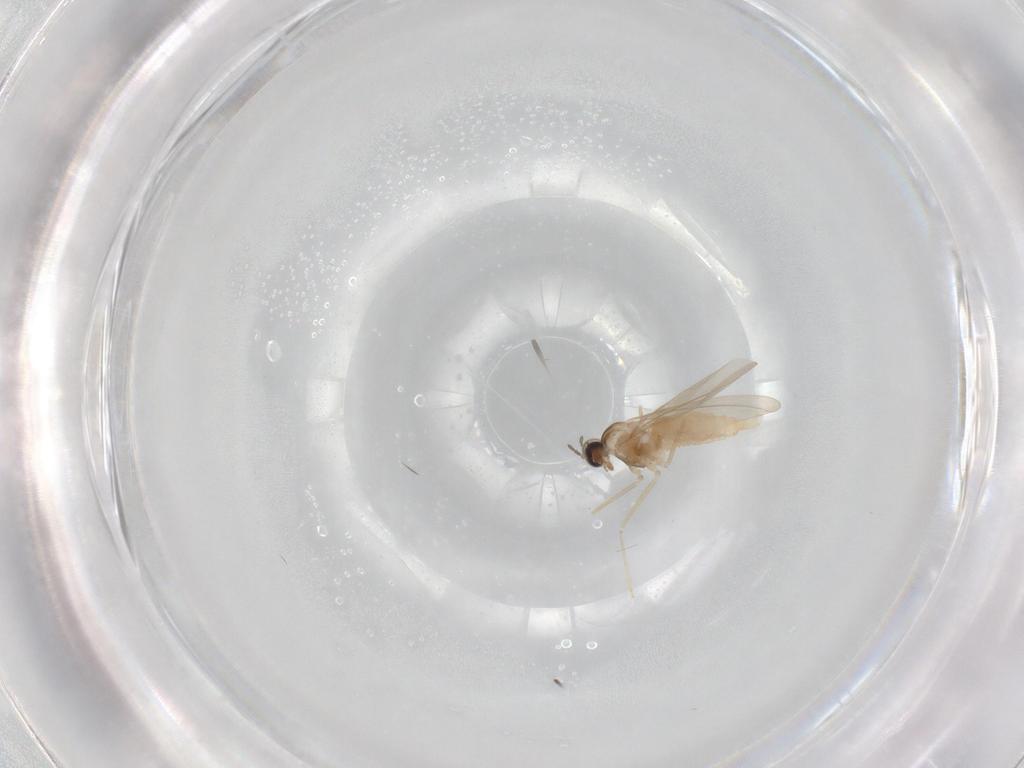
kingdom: Animalia
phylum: Arthropoda
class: Insecta
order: Diptera
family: Cecidomyiidae
